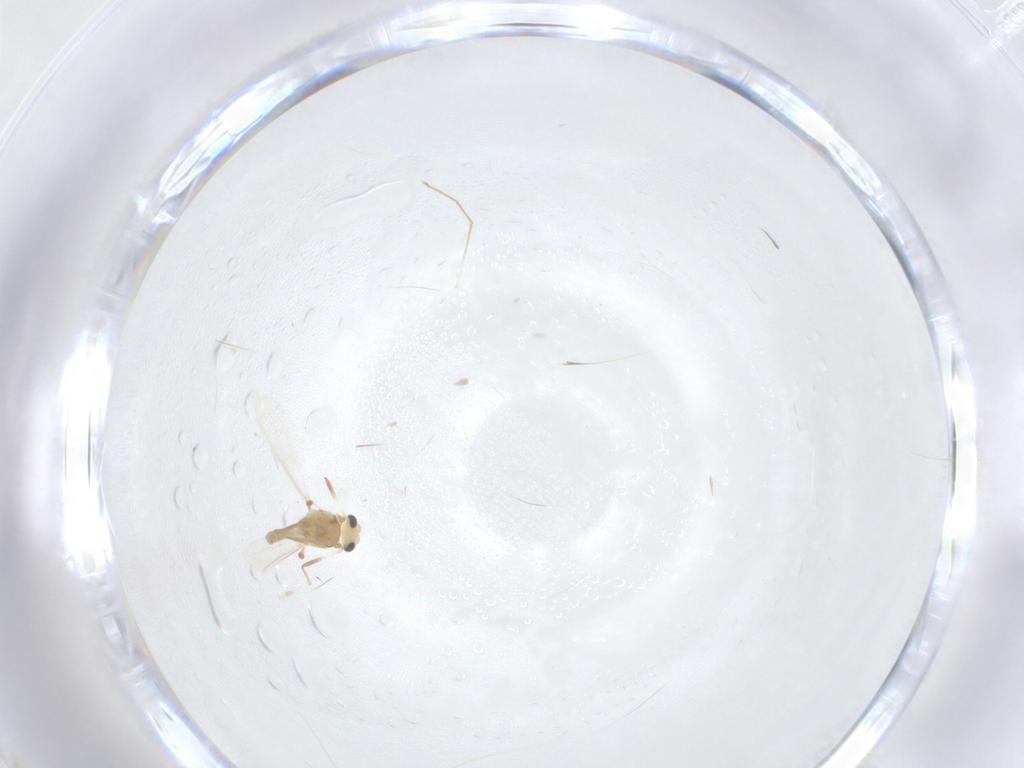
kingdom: Animalia
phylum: Arthropoda
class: Insecta
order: Diptera
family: Chironomidae
